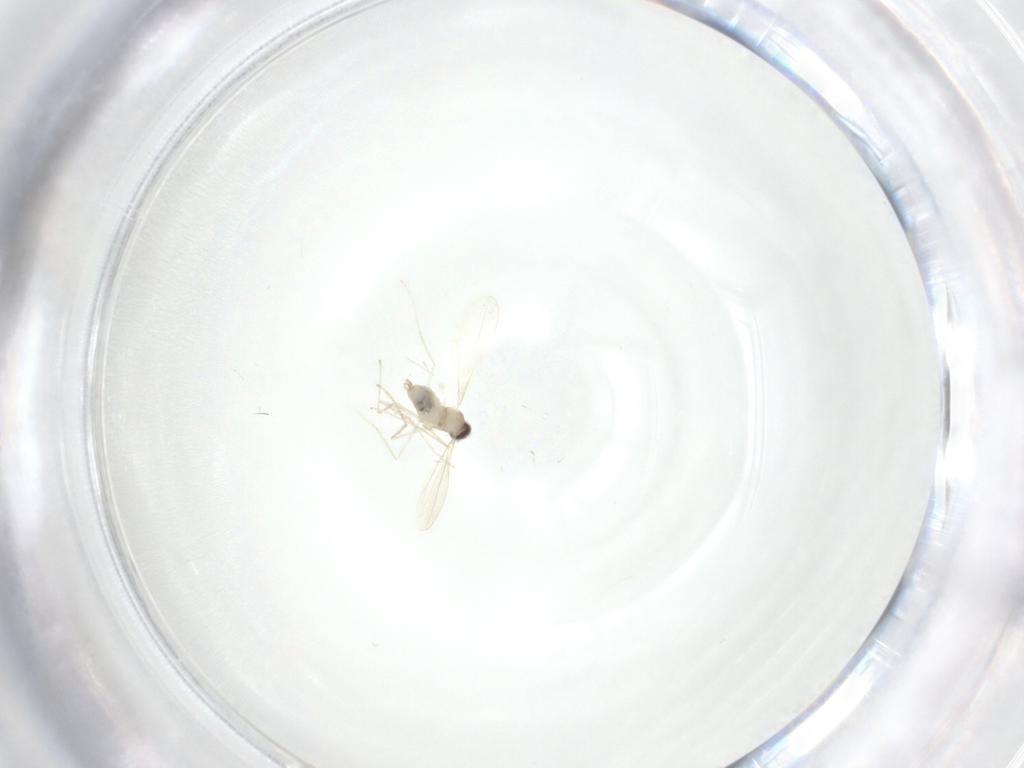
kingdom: Animalia
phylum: Arthropoda
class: Insecta
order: Diptera
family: Cecidomyiidae
